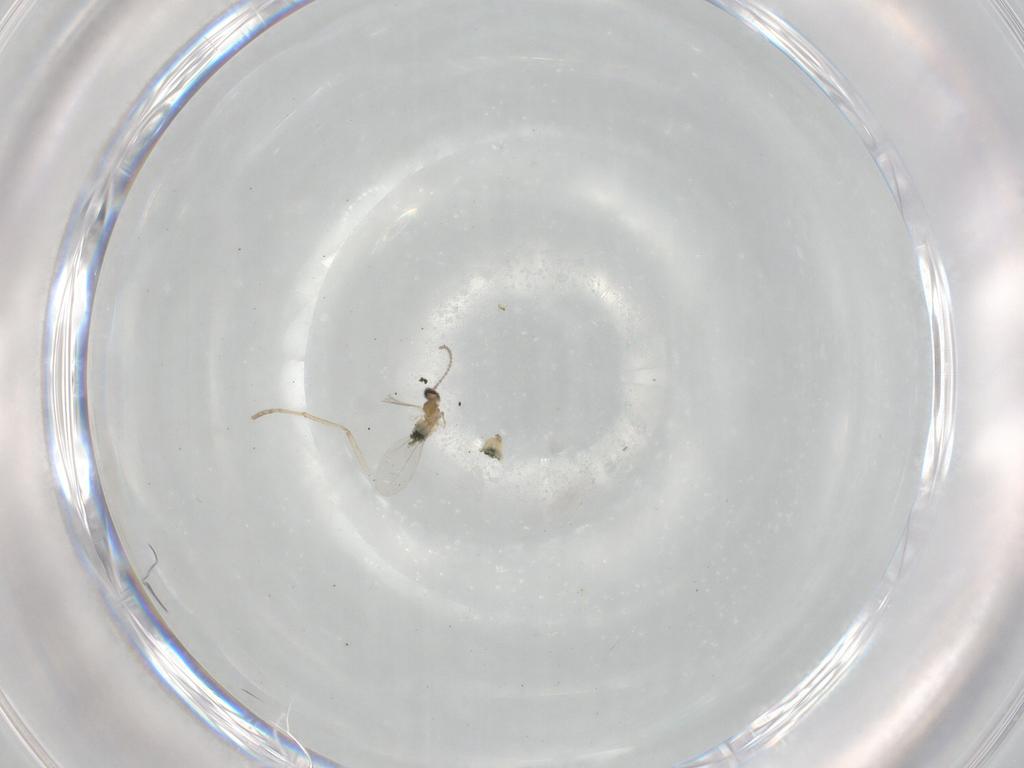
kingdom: Animalia
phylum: Arthropoda
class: Insecta
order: Diptera
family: Cecidomyiidae
